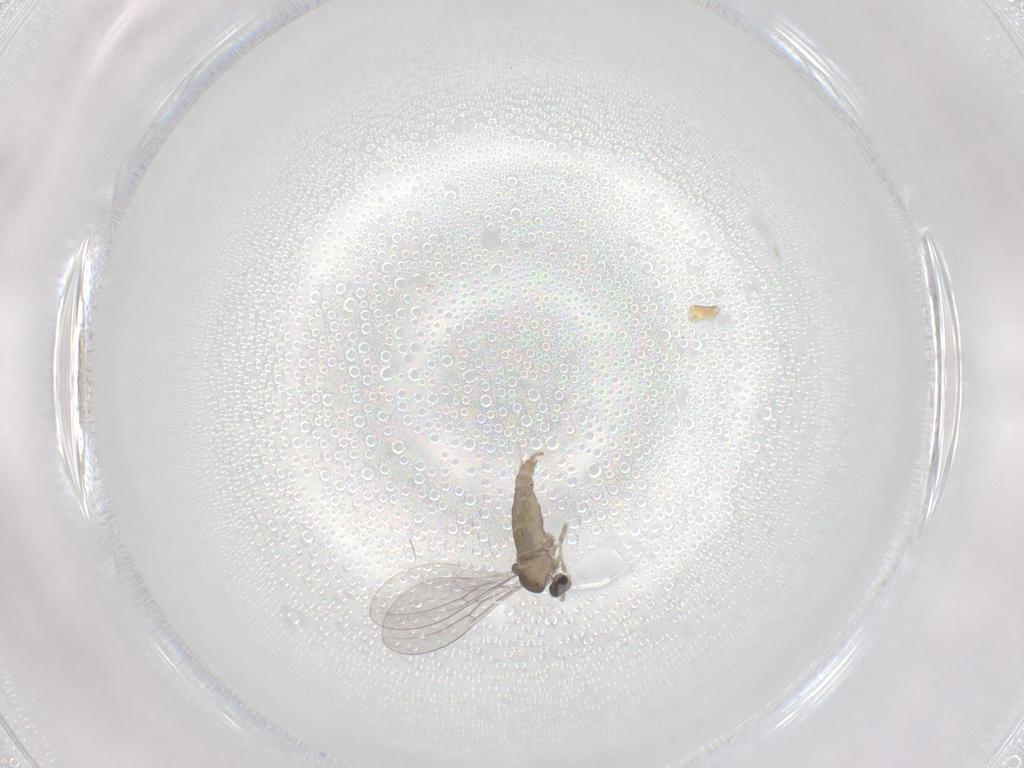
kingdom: Animalia
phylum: Arthropoda
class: Insecta
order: Diptera
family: Cecidomyiidae
